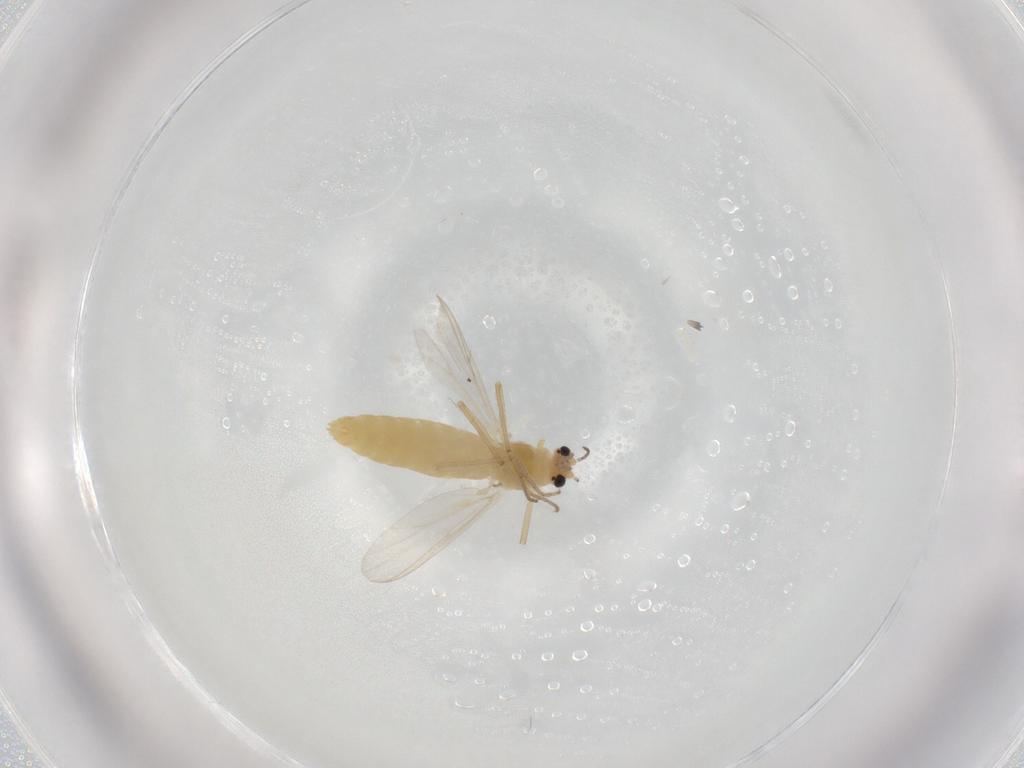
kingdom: Animalia
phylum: Arthropoda
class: Insecta
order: Diptera
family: Chironomidae
